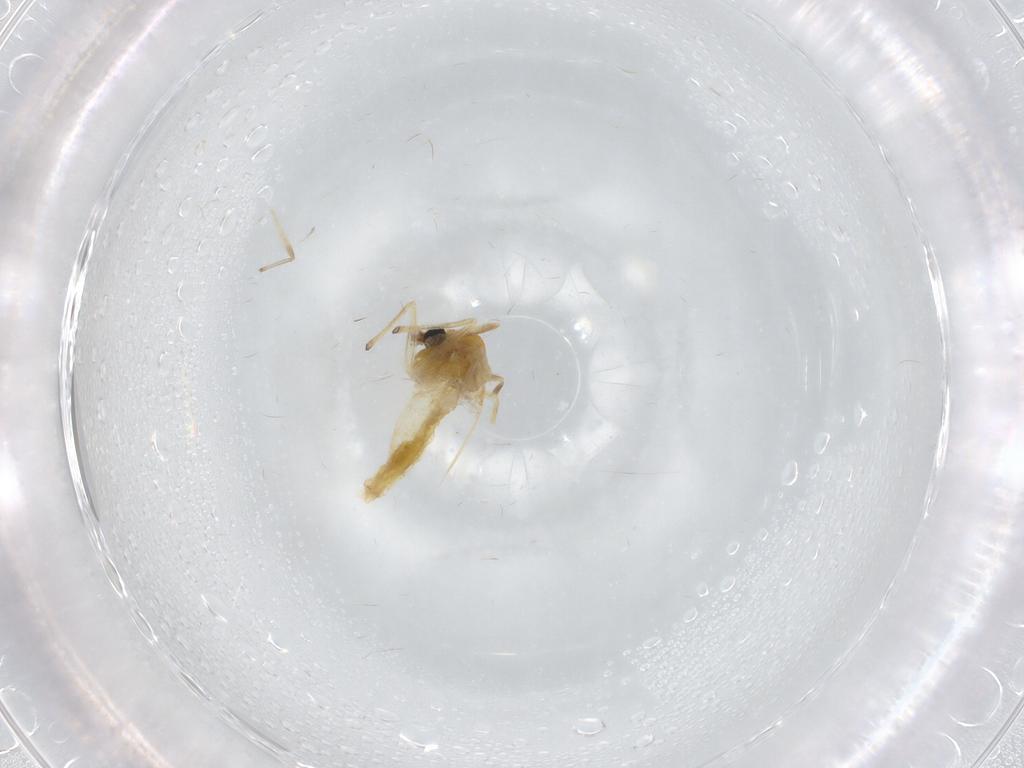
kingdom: Animalia
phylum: Arthropoda
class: Insecta
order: Diptera
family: Chironomidae
